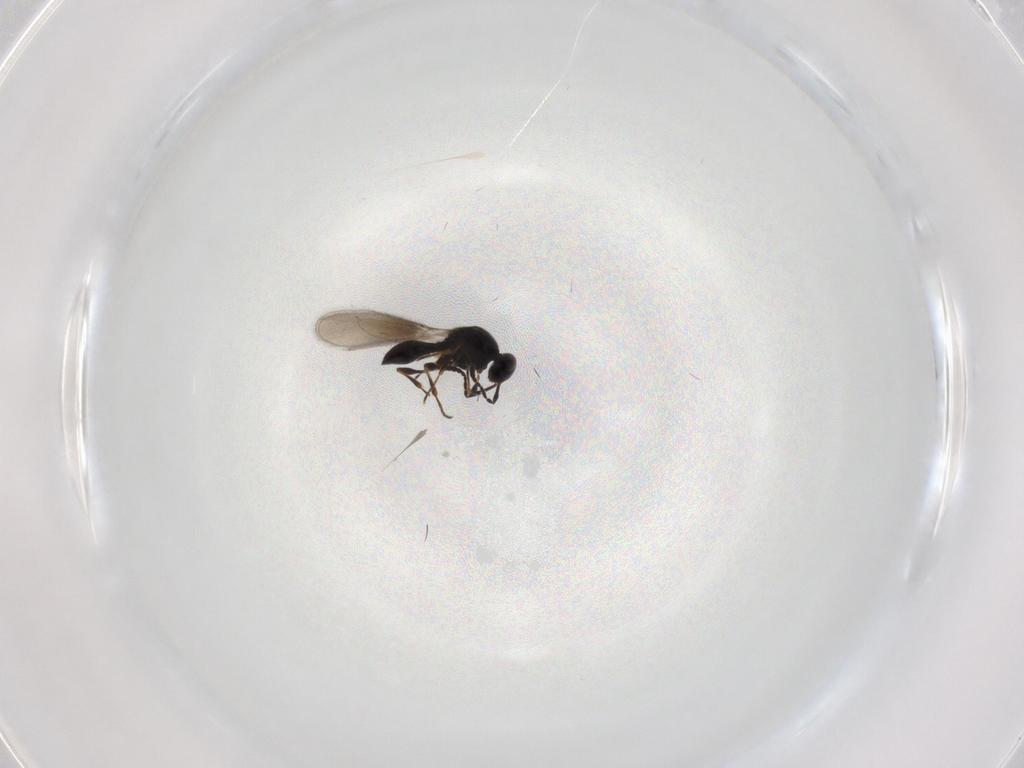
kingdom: Animalia
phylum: Arthropoda
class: Insecta
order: Hymenoptera
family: Platygastridae
